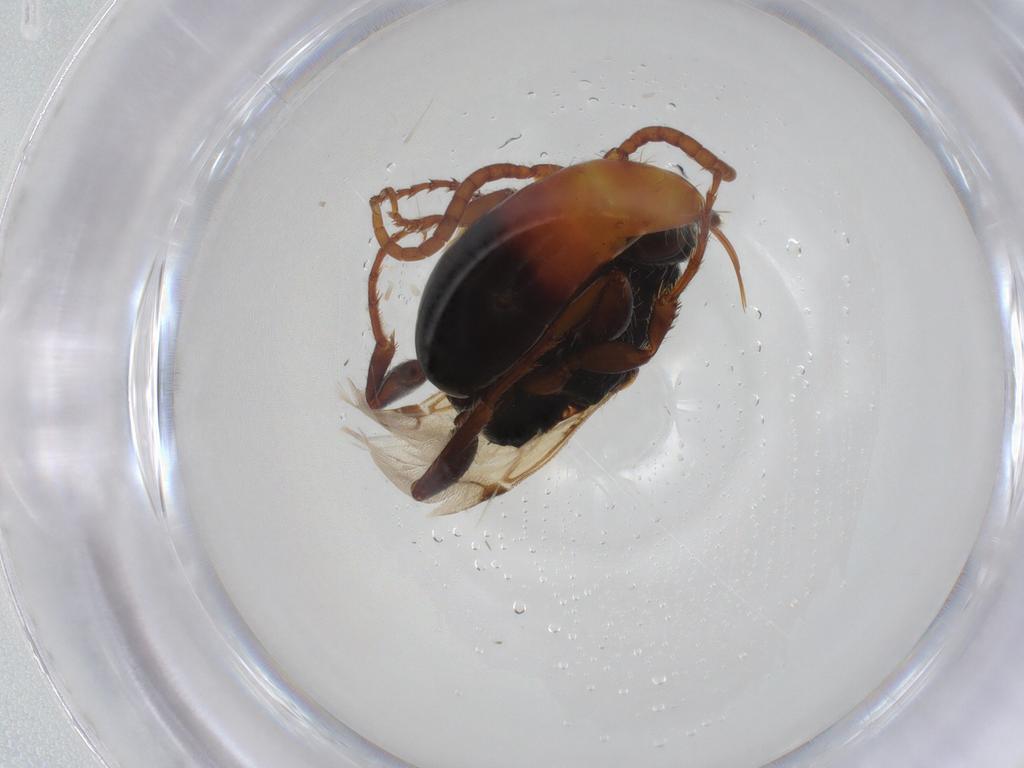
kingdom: Animalia
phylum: Arthropoda
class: Insecta
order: Hymenoptera
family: Bethylidae
